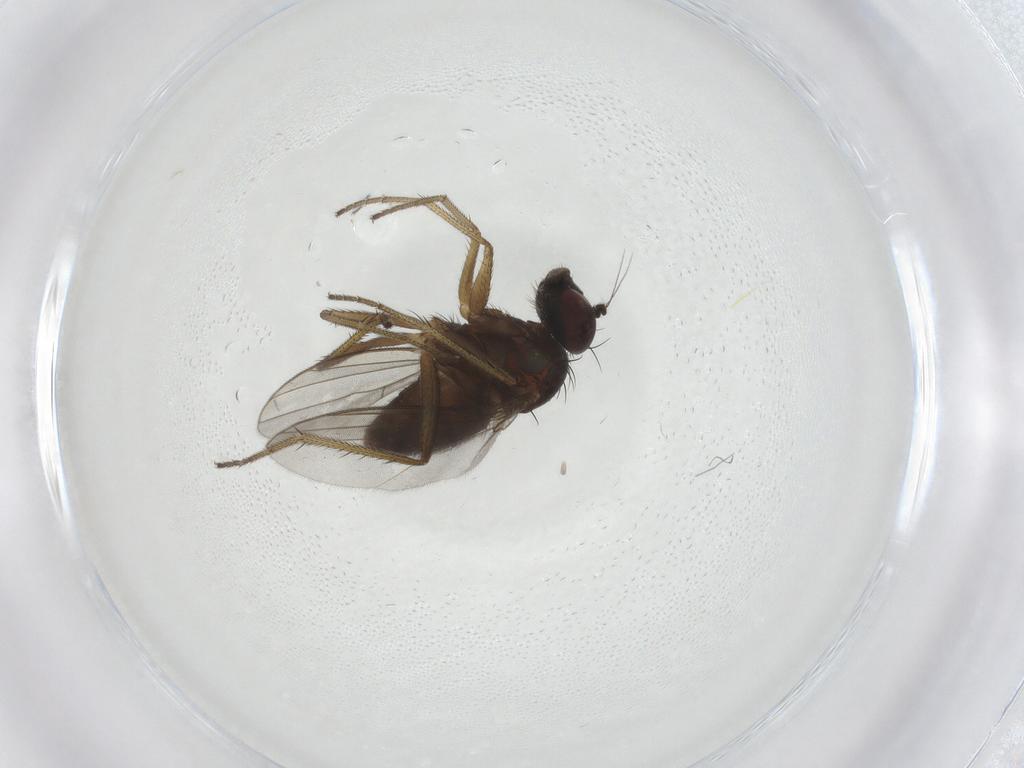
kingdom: Animalia
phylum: Arthropoda
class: Insecta
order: Diptera
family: Dolichopodidae
